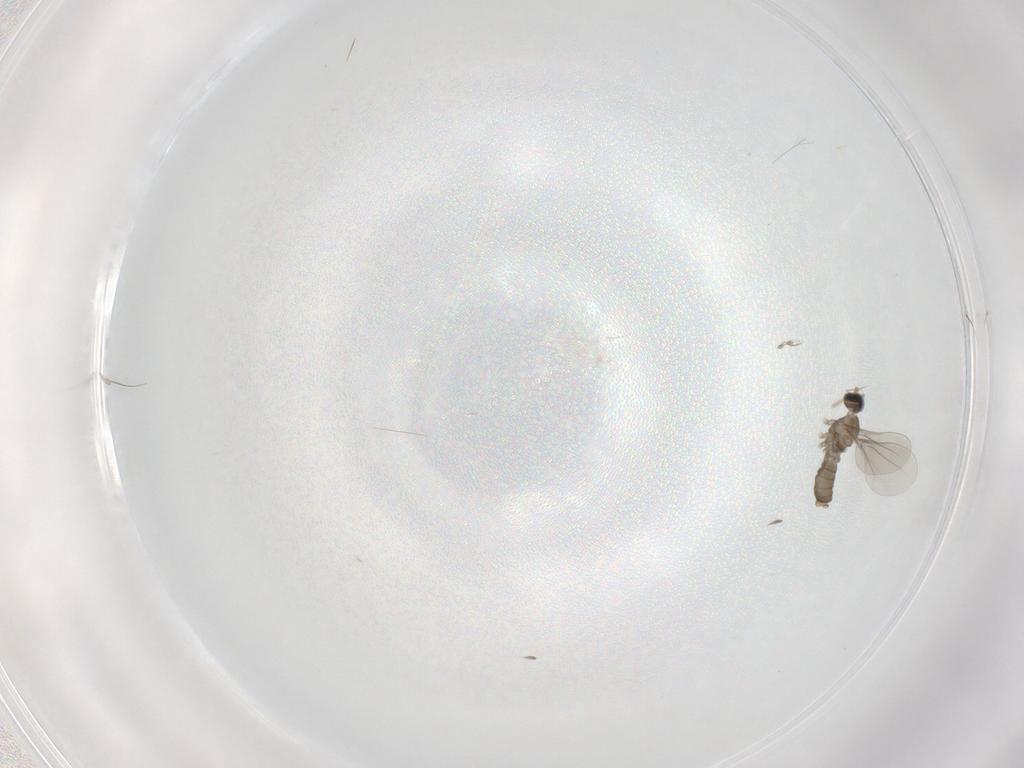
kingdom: Animalia
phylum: Arthropoda
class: Insecta
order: Diptera
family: Cecidomyiidae
